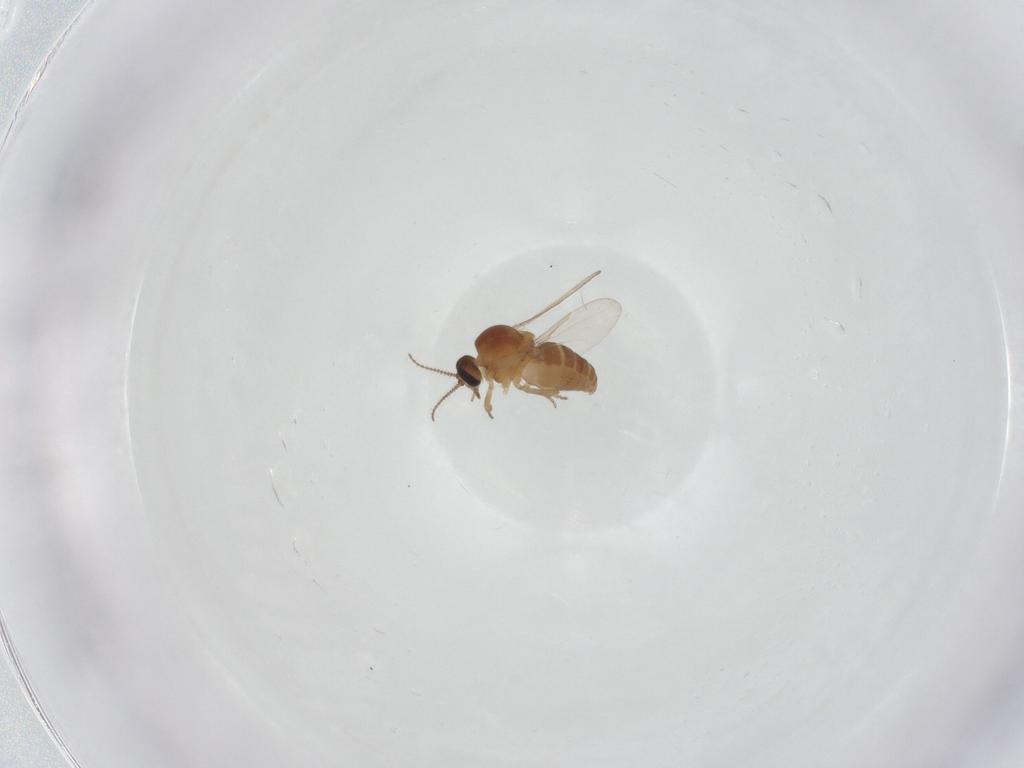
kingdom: Animalia
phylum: Arthropoda
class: Insecta
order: Diptera
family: Ceratopogonidae
